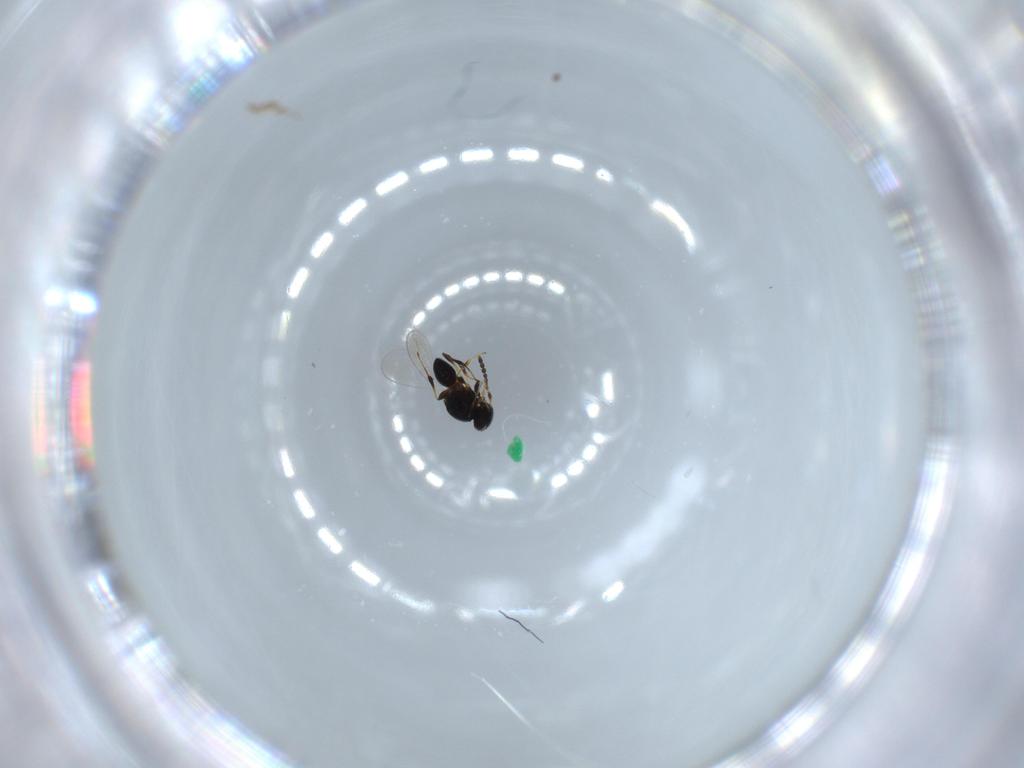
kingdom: Animalia
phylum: Arthropoda
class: Insecta
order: Hymenoptera
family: Platygastridae
